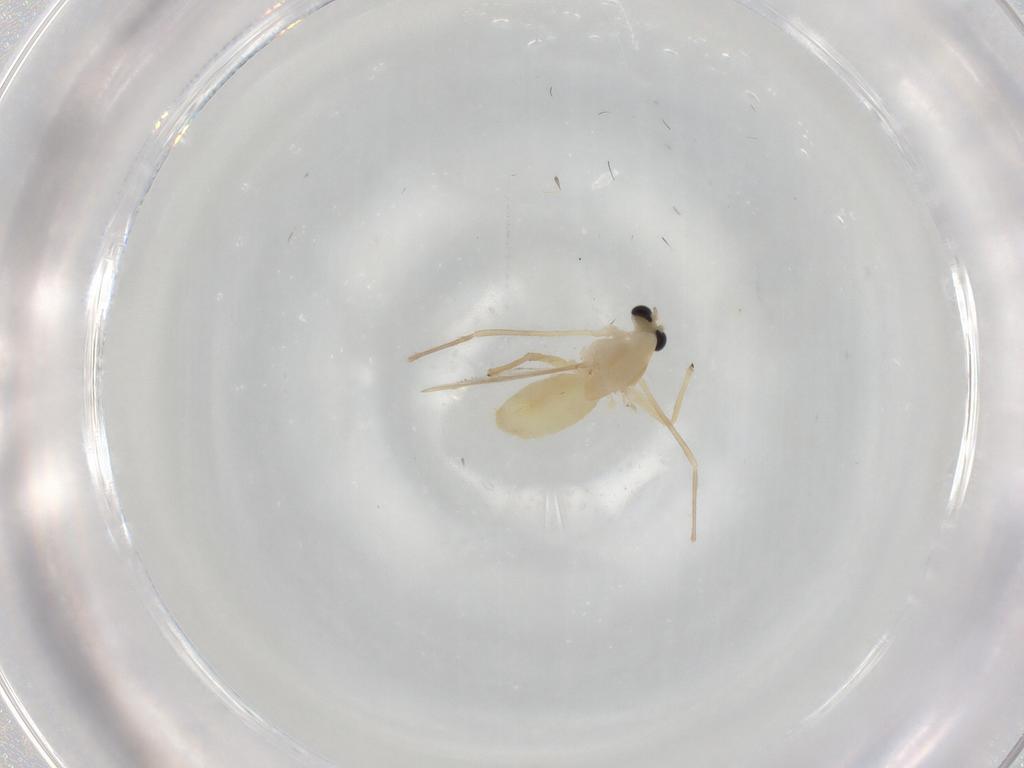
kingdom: Animalia
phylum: Arthropoda
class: Insecta
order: Diptera
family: Chironomidae
